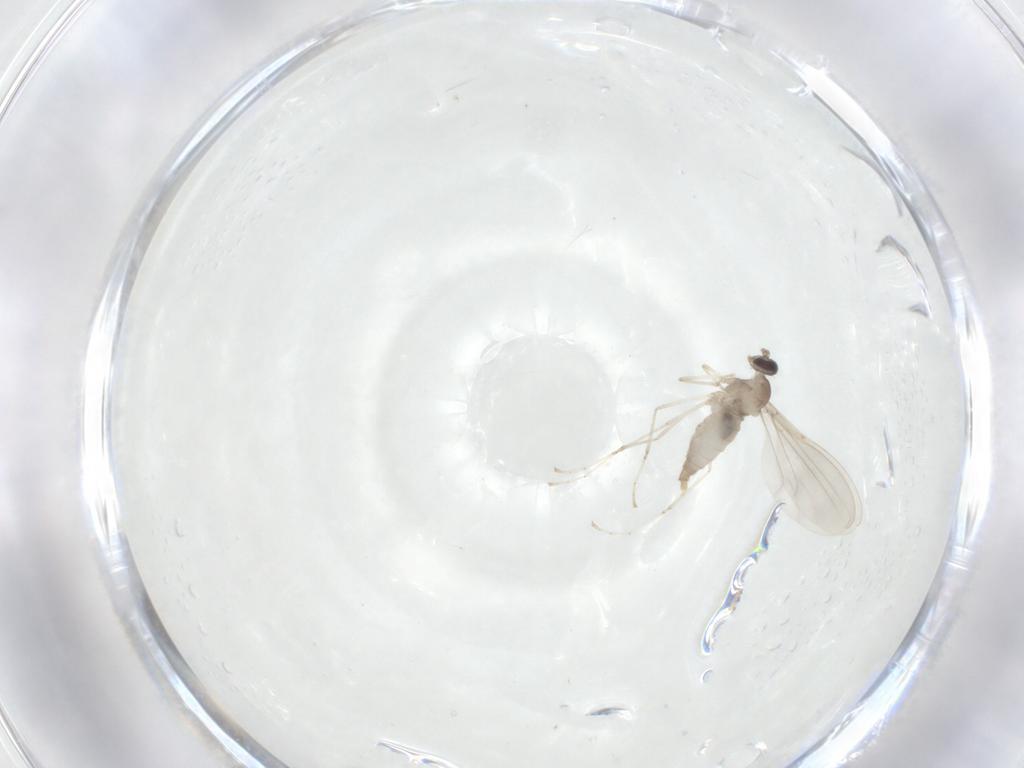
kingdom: Animalia
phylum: Arthropoda
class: Insecta
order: Diptera
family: Cecidomyiidae
